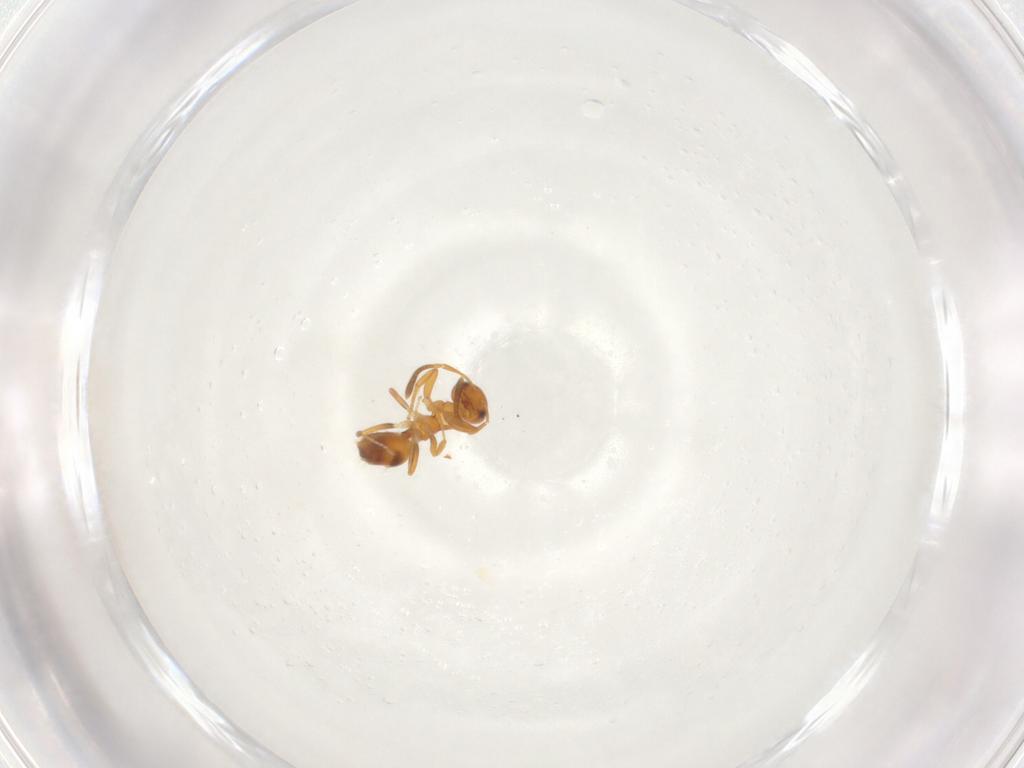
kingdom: Animalia
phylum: Arthropoda
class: Insecta
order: Hymenoptera
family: Formicidae
